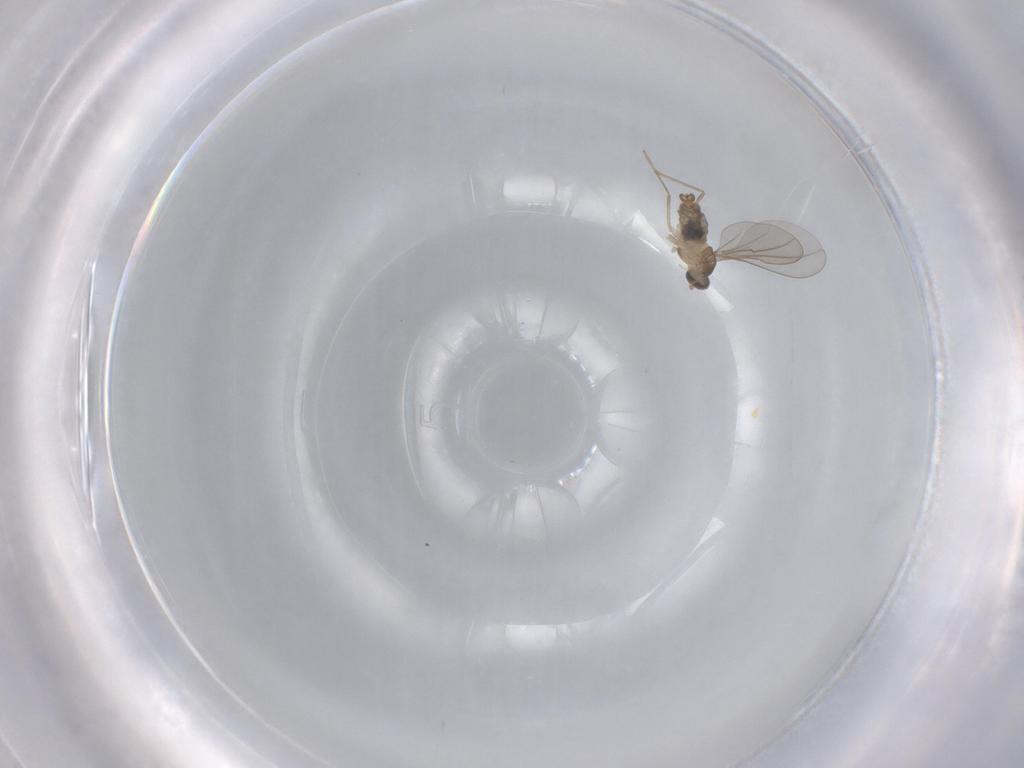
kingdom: Animalia
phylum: Arthropoda
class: Insecta
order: Diptera
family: Cecidomyiidae
